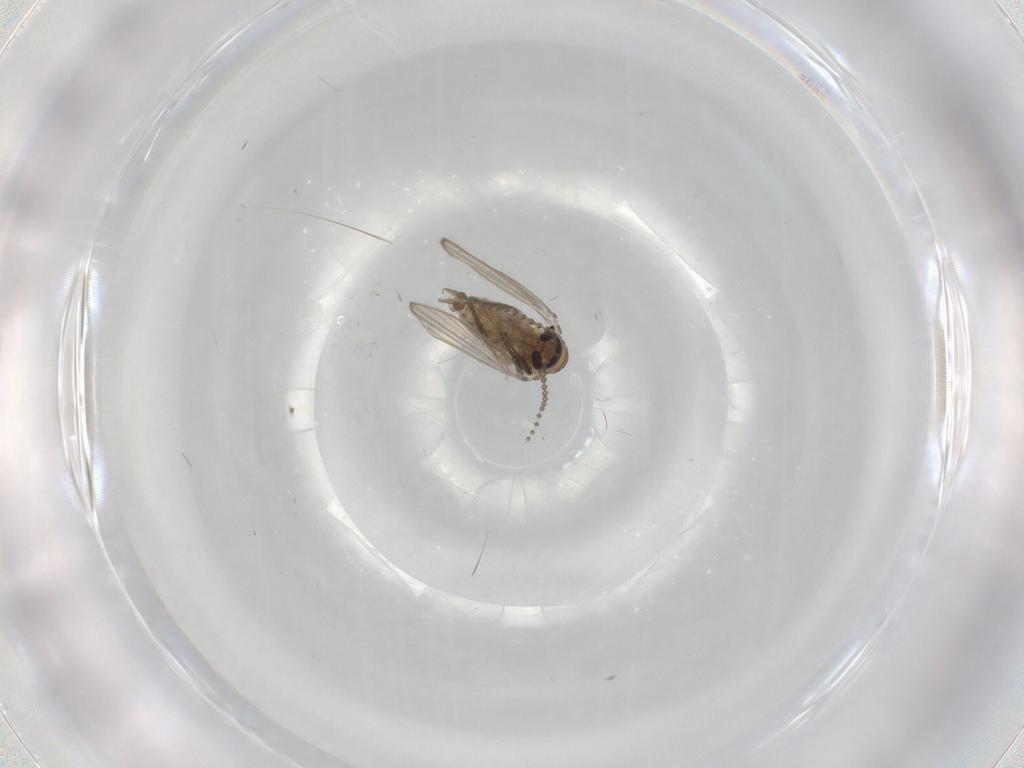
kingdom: Animalia
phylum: Arthropoda
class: Insecta
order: Diptera
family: Psychodidae
